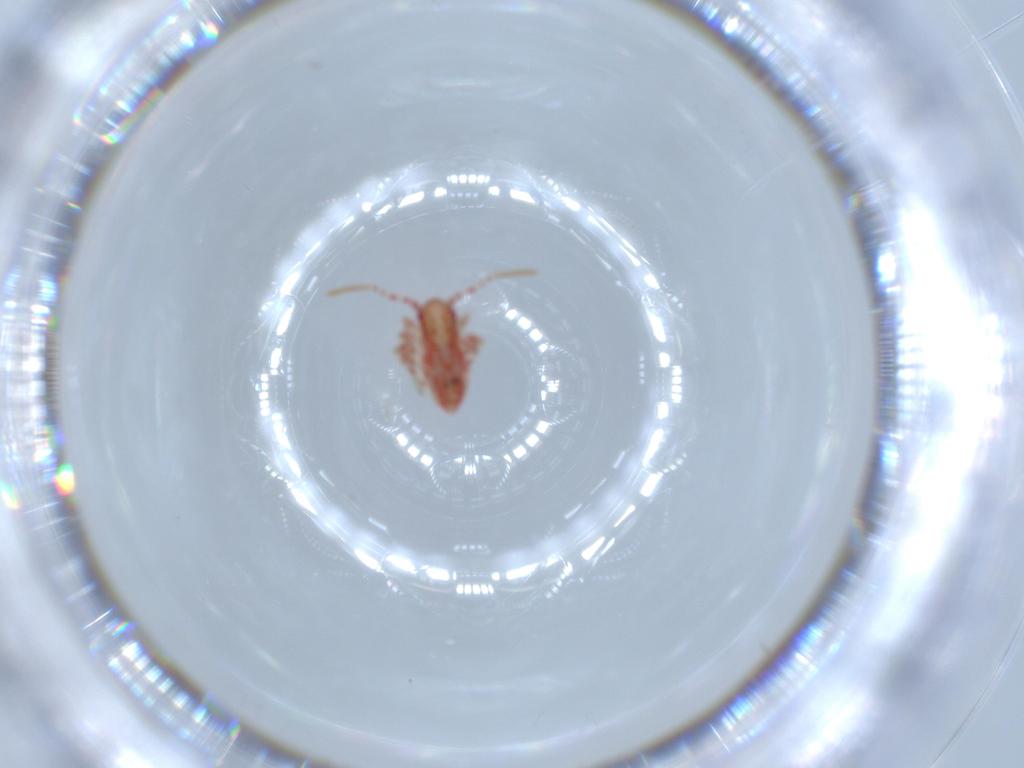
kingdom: Animalia
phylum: Arthropoda
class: Insecta
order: Hemiptera
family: Miridae
